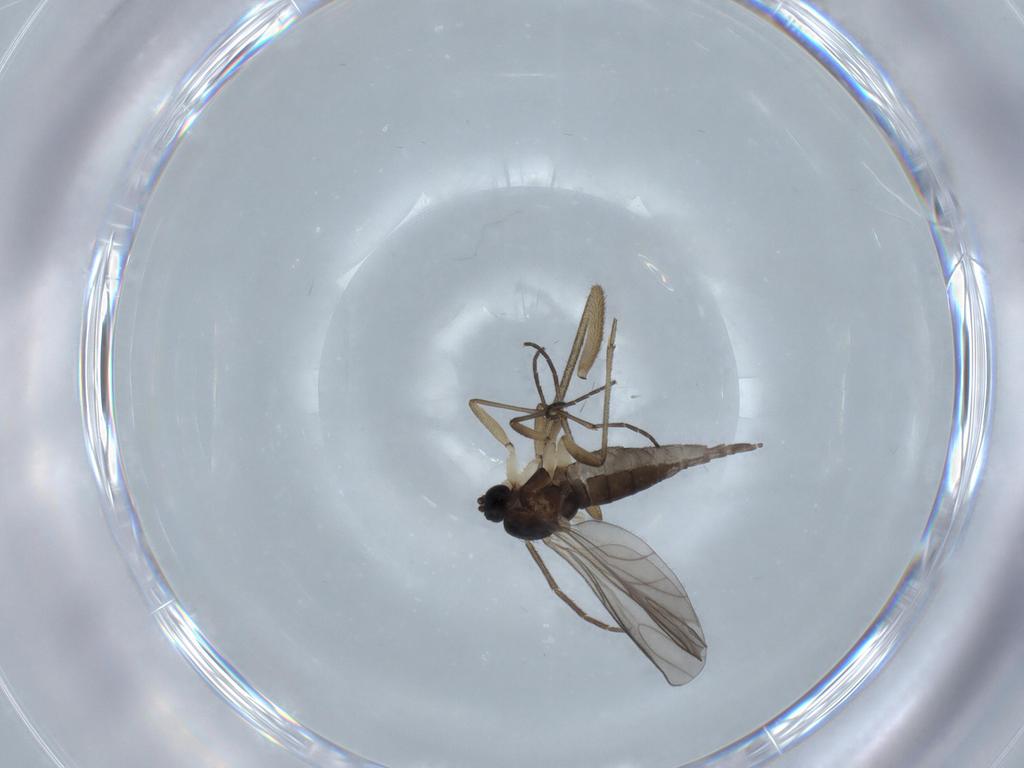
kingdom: Animalia
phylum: Arthropoda
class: Insecta
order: Diptera
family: Sciaridae
